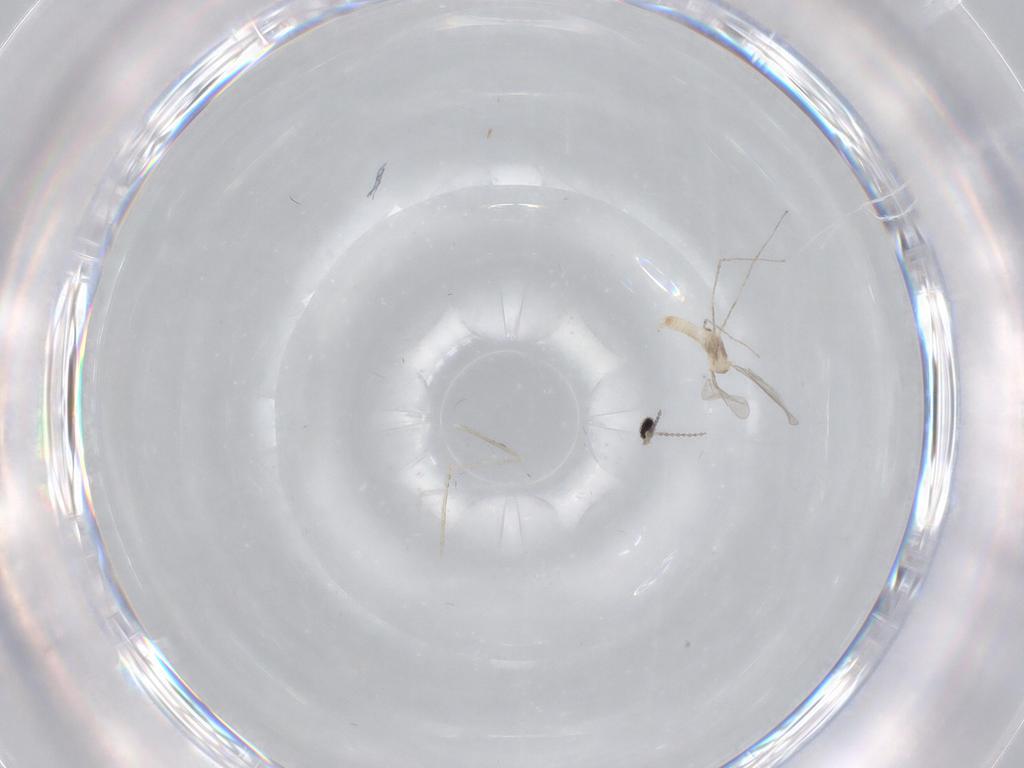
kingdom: Animalia
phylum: Arthropoda
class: Insecta
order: Diptera
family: Cecidomyiidae
